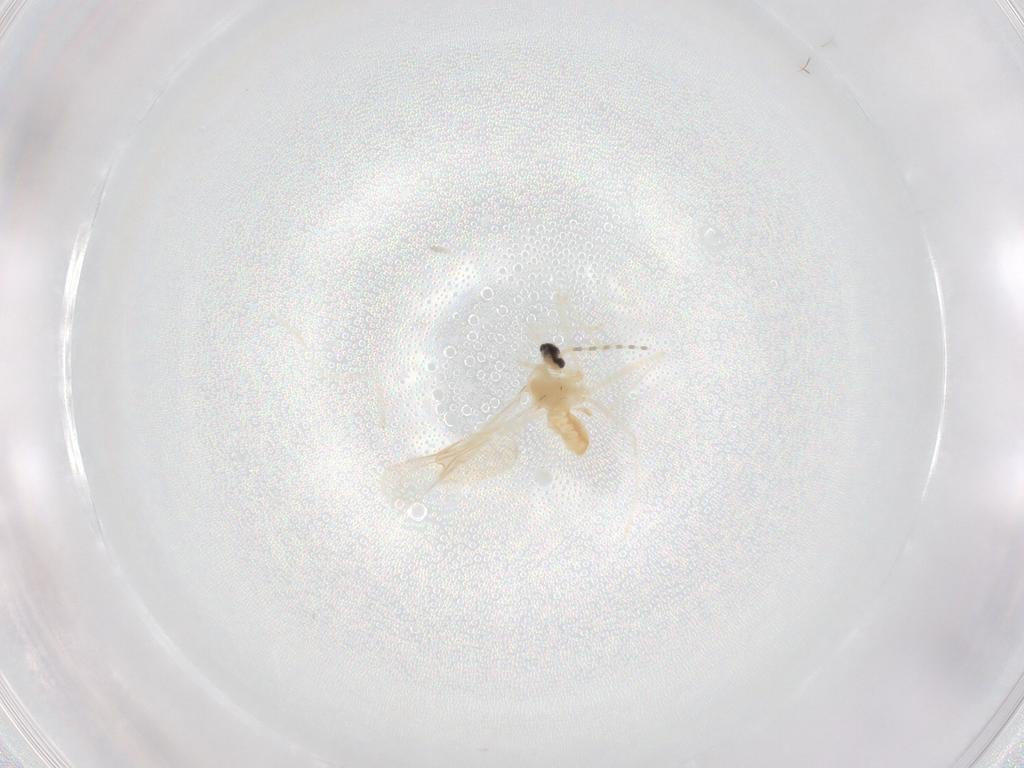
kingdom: Animalia
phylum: Arthropoda
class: Insecta
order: Diptera
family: Cecidomyiidae
